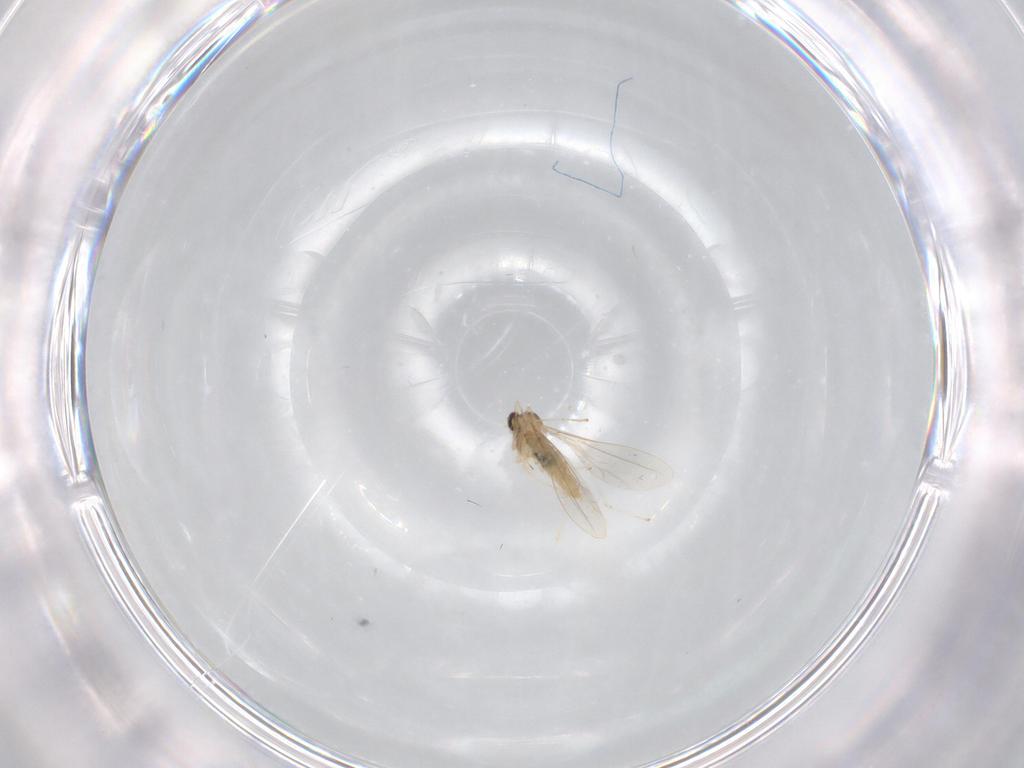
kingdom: Animalia
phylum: Arthropoda
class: Insecta
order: Diptera
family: Cecidomyiidae
